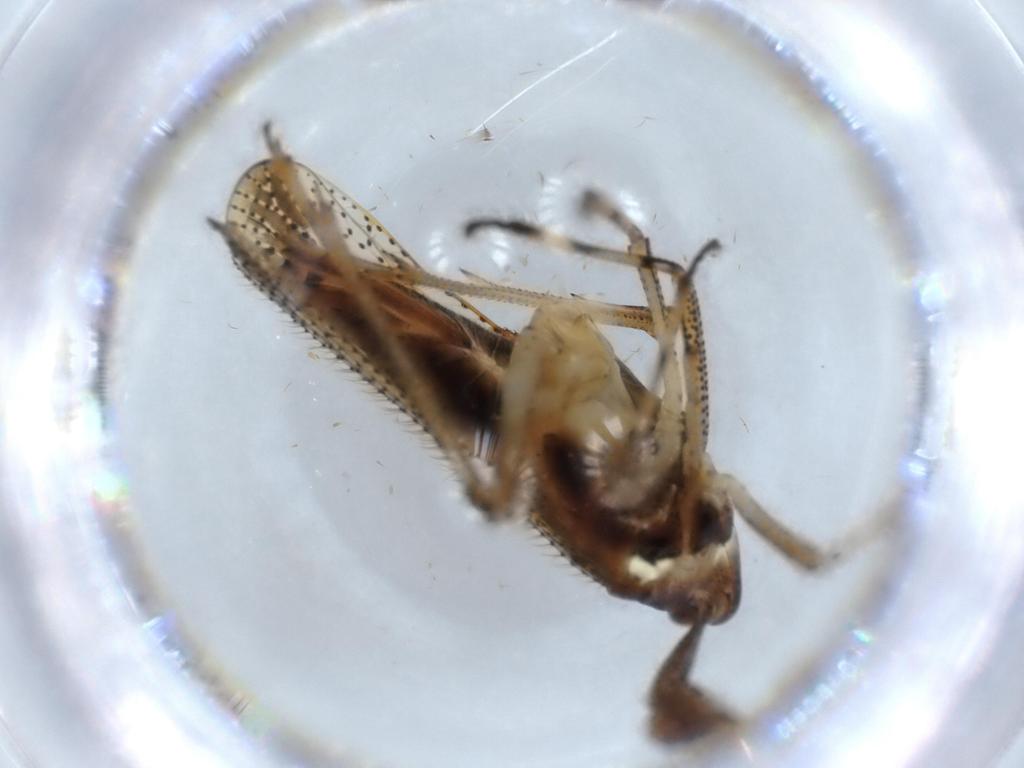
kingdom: Animalia
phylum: Arthropoda
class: Insecta
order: Hemiptera
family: Delphacidae
